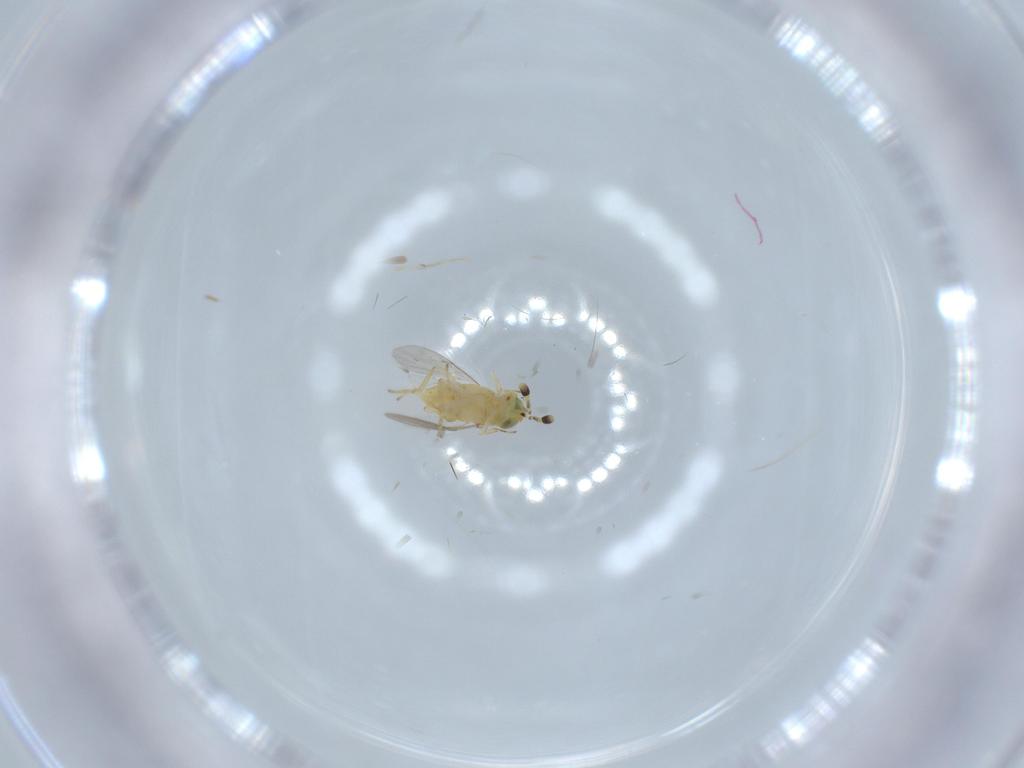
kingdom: Animalia
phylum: Arthropoda
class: Insecta
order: Hymenoptera
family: Encyrtidae
